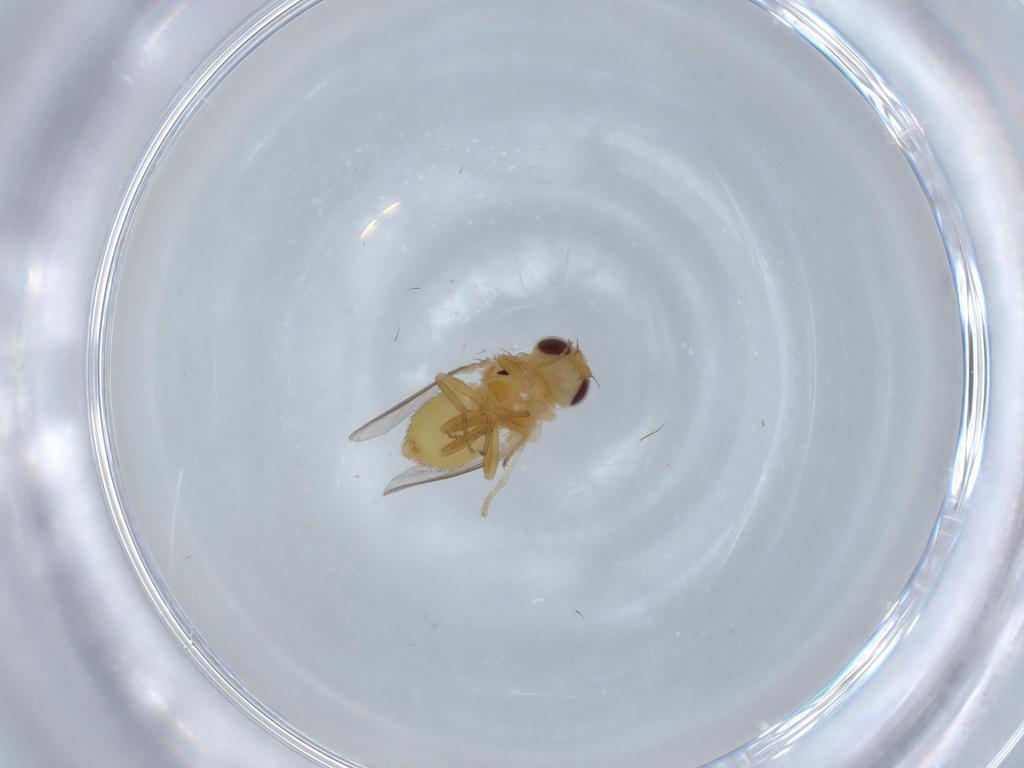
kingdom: Animalia
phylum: Arthropoda
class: Insecta
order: Diptera
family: Chloropidae
